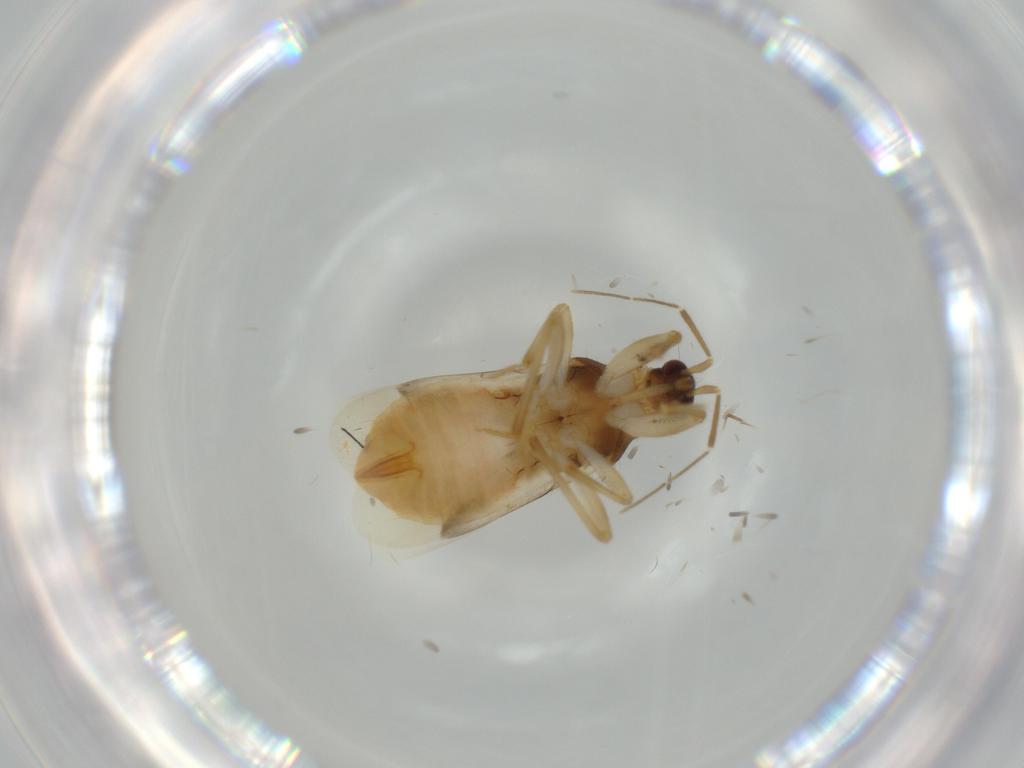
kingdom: Animalia
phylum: Arthropoda
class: Insecta
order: Hemiptera
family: Nabidae
